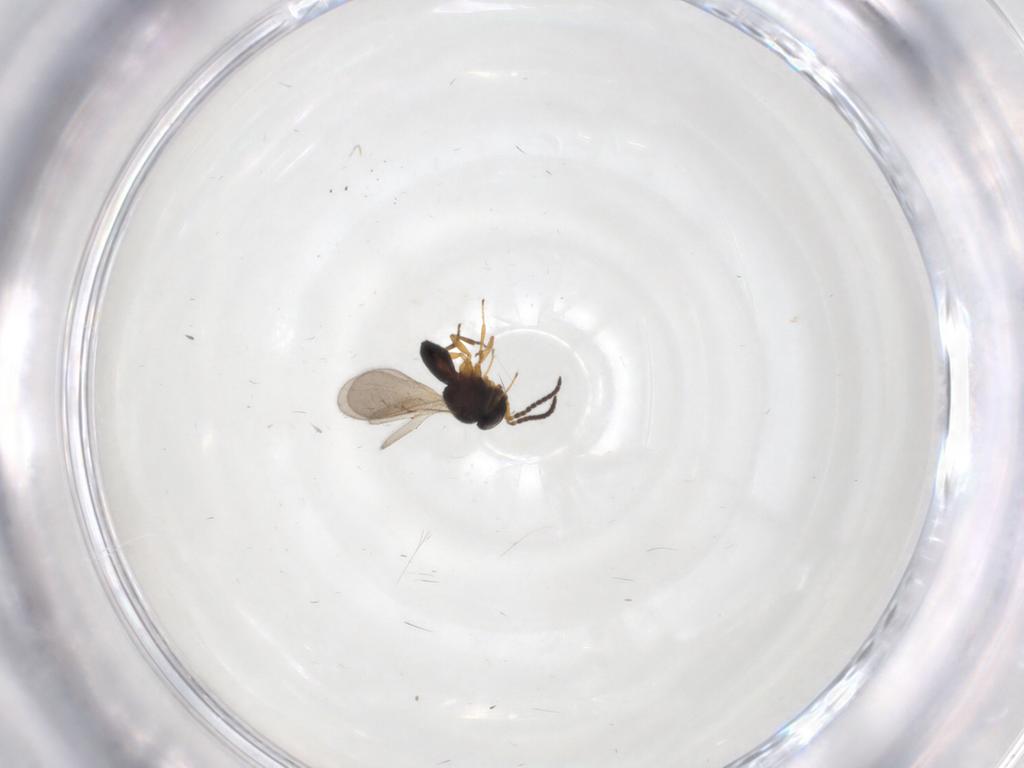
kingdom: Animalia
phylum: Arthropoda
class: Insecta
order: Hymenoptera
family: Scelionidae
